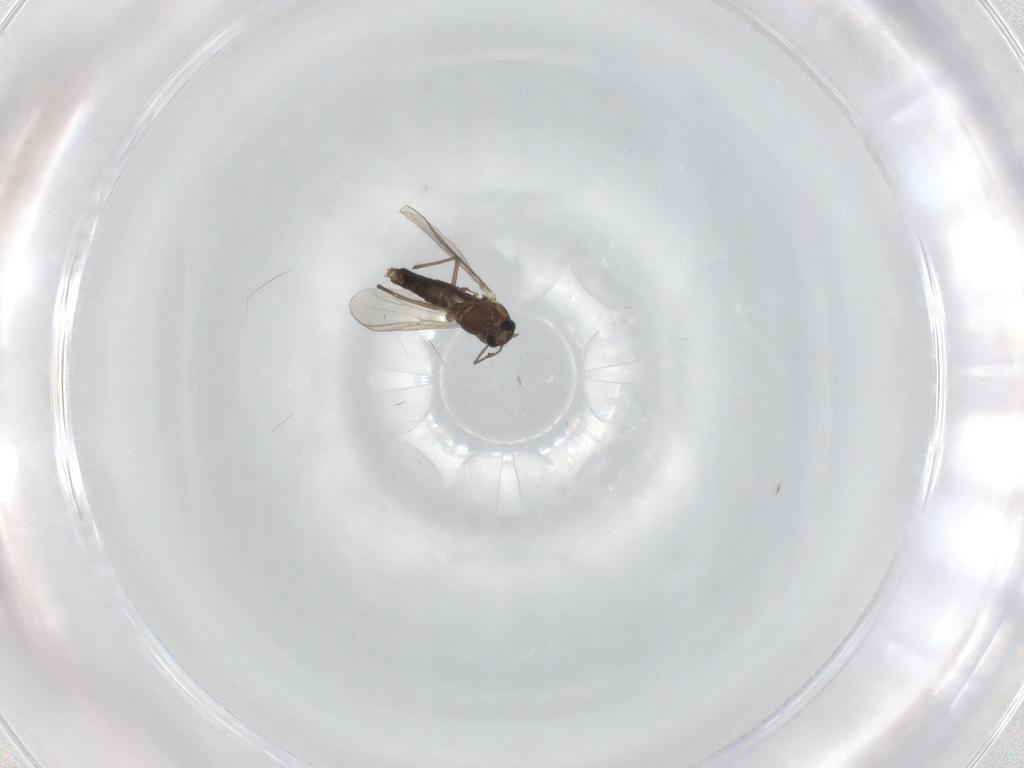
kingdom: Animalia
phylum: Arthropoda
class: Insecta
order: Diptera
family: Chironomidae
